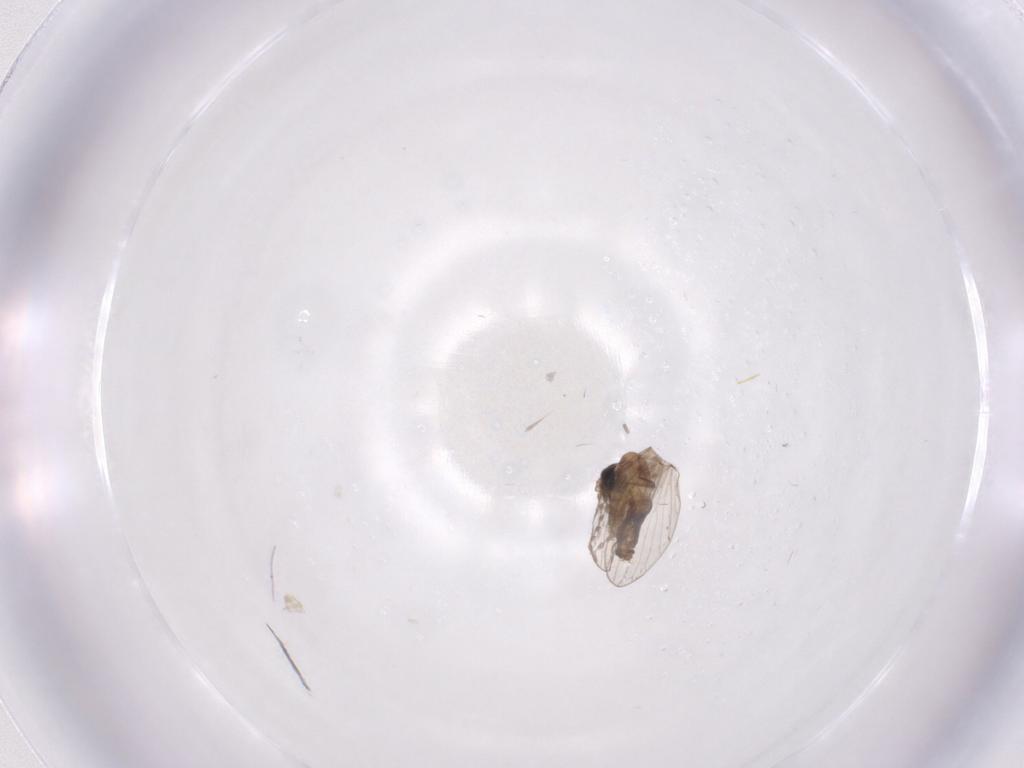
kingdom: Animalia
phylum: Arthropoda
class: Insecta
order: Diptera
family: Psychodidae
